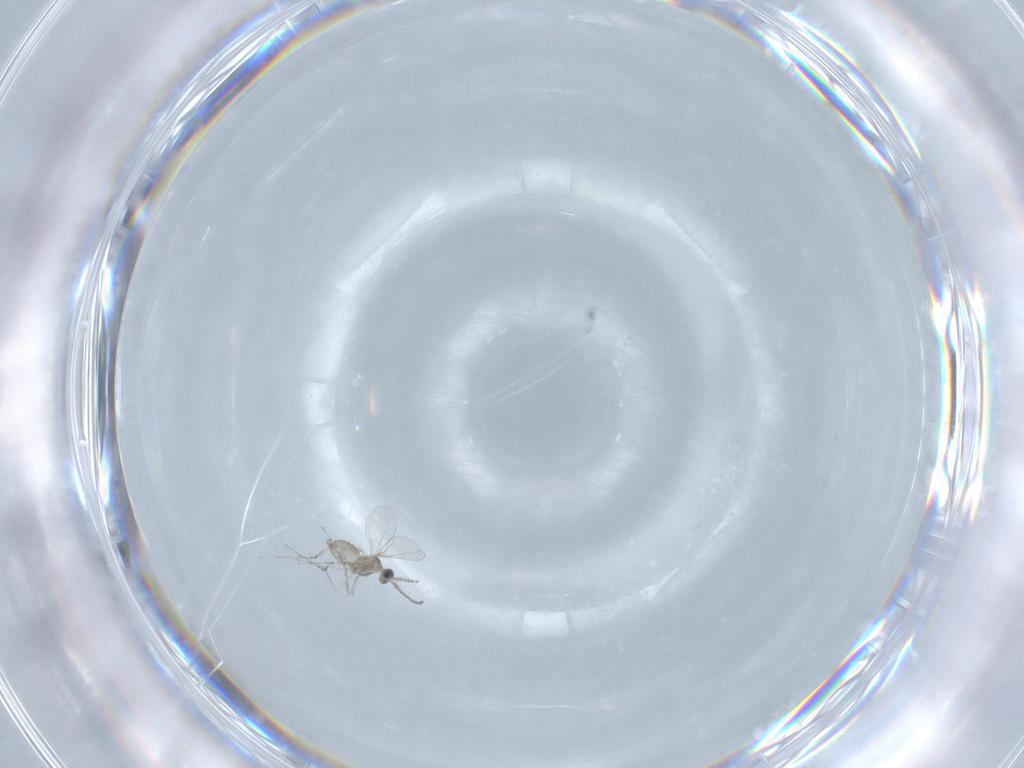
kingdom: Animalia
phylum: Arthropoda
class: Insecta
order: Diptera
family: Cecidomyiidae
